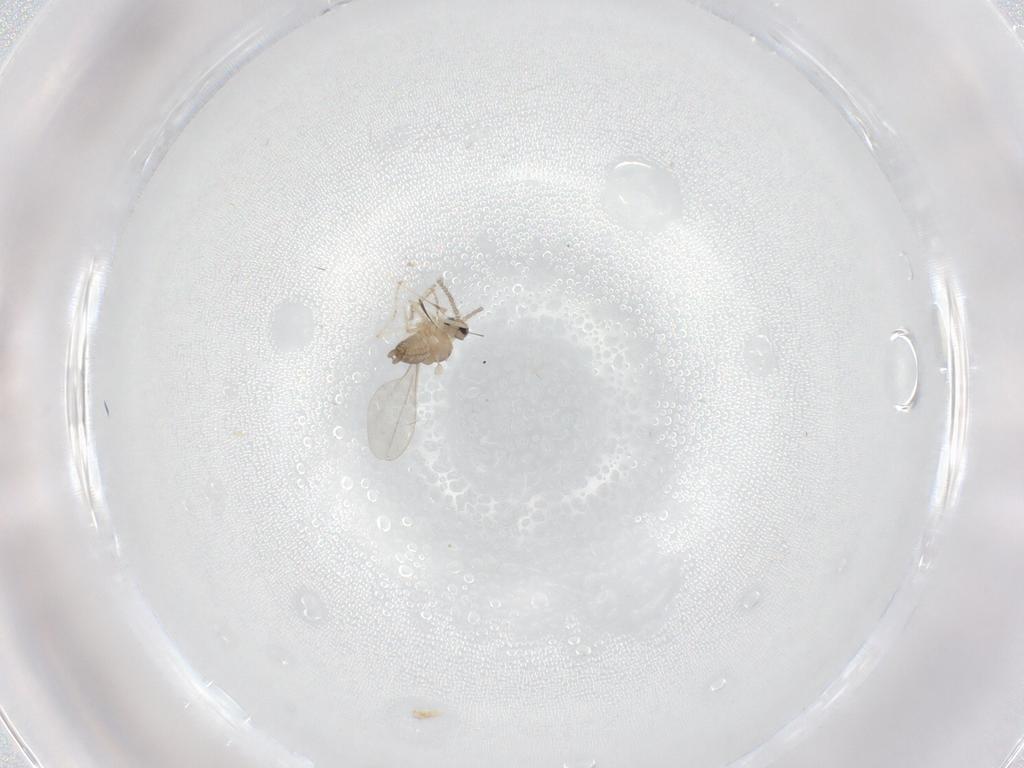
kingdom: Animalia
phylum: Arthropoda
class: Insecta
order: Diptera
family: Cecidomyiidae
